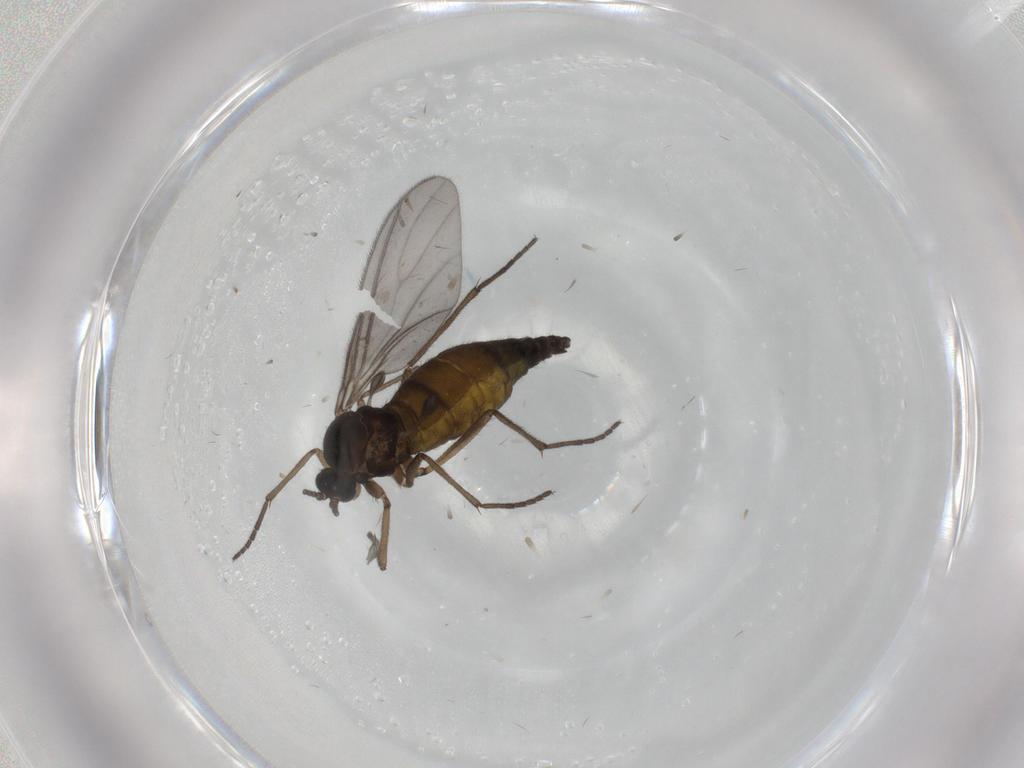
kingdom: Animalia
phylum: Arthropoda
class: Insecta
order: Diptera
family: Sciaridae
